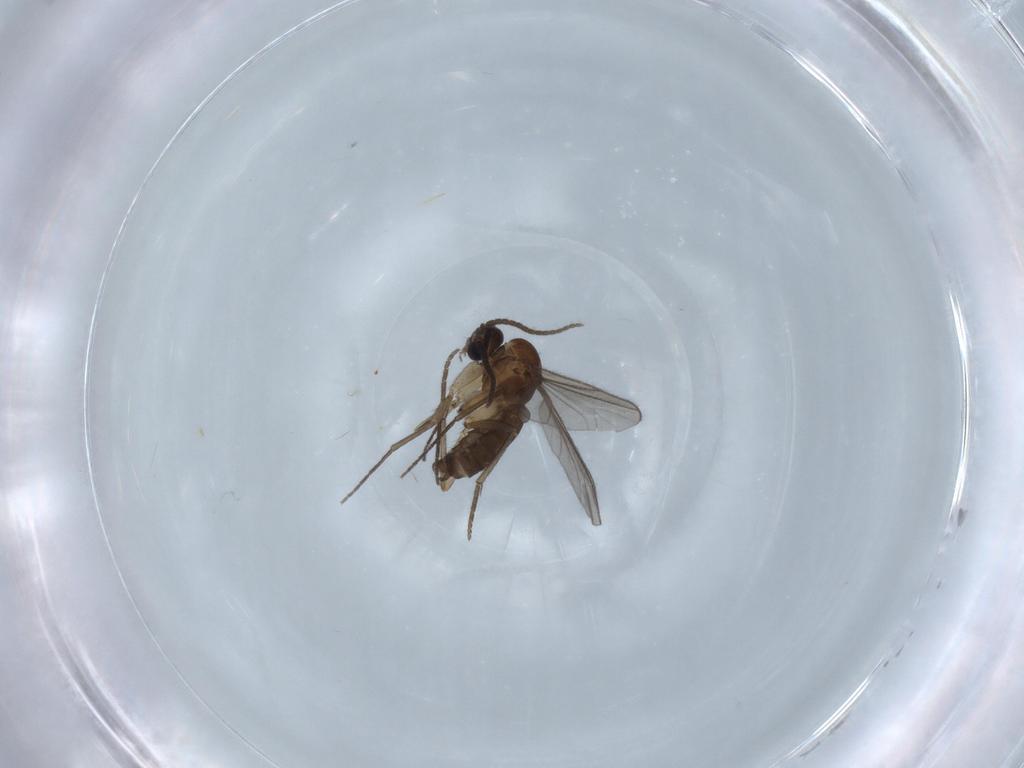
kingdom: Animalia
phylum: Arthropoda
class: Insecta
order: Diptera
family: Sciaridae
